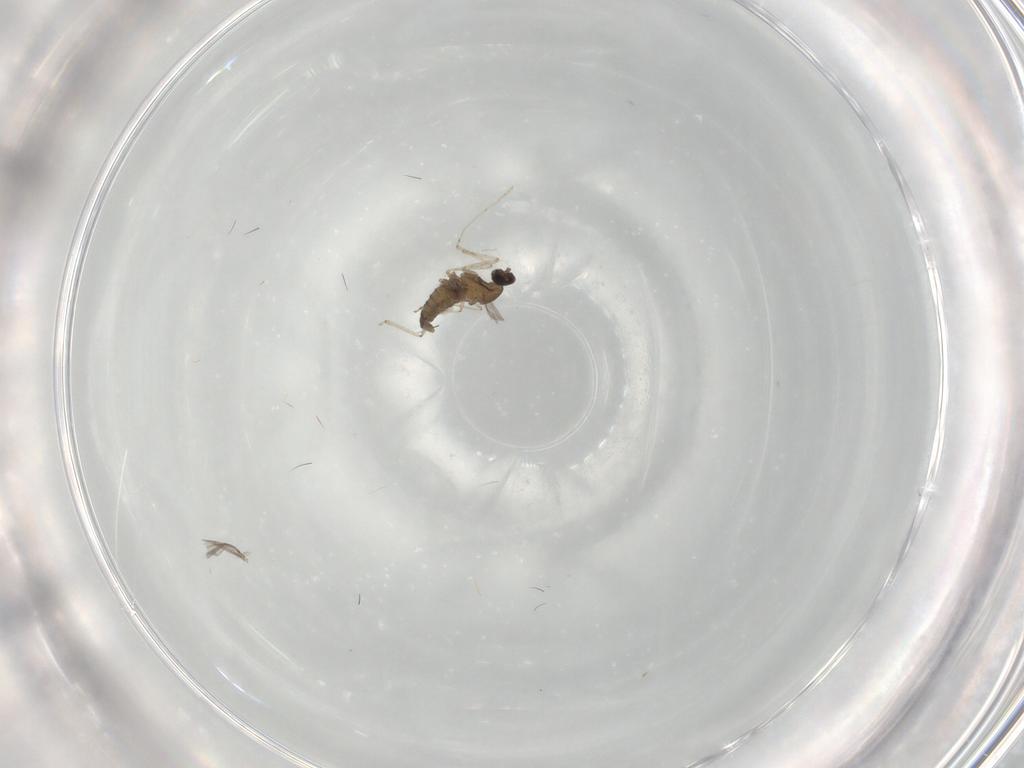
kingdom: Animalia
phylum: Arthropoda
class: Insecta
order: Diptera
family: Cecidomyiidae
